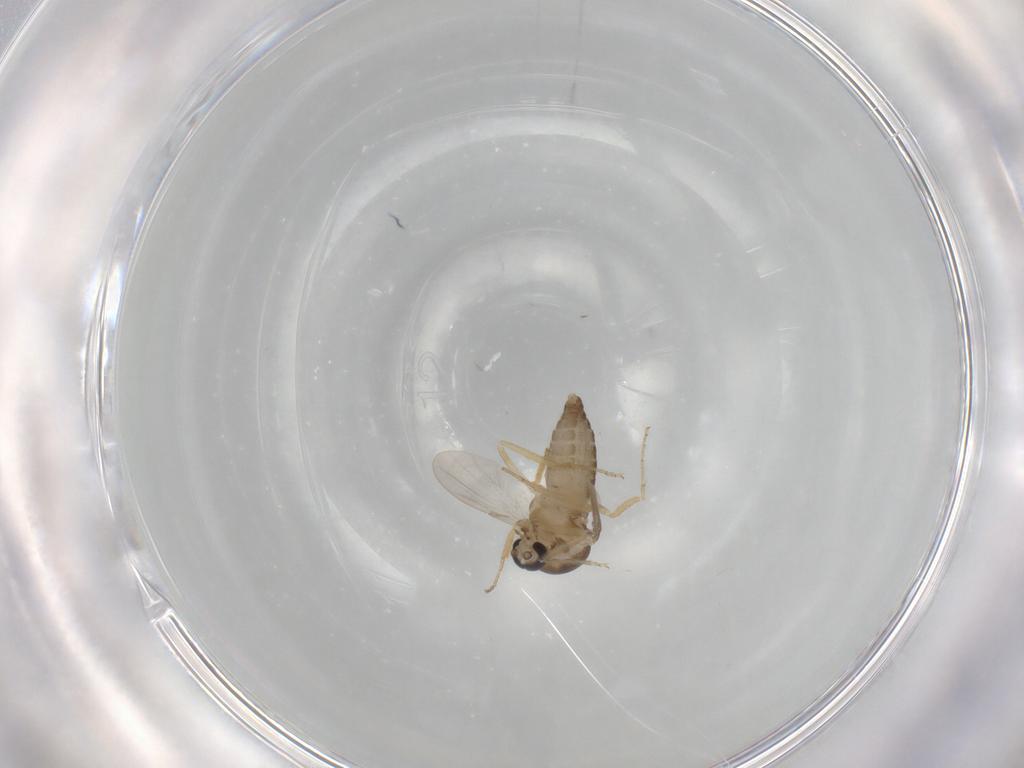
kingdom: Animalia
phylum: Arthropoda
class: Insecta
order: Diptera
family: Ceratopogonidae
